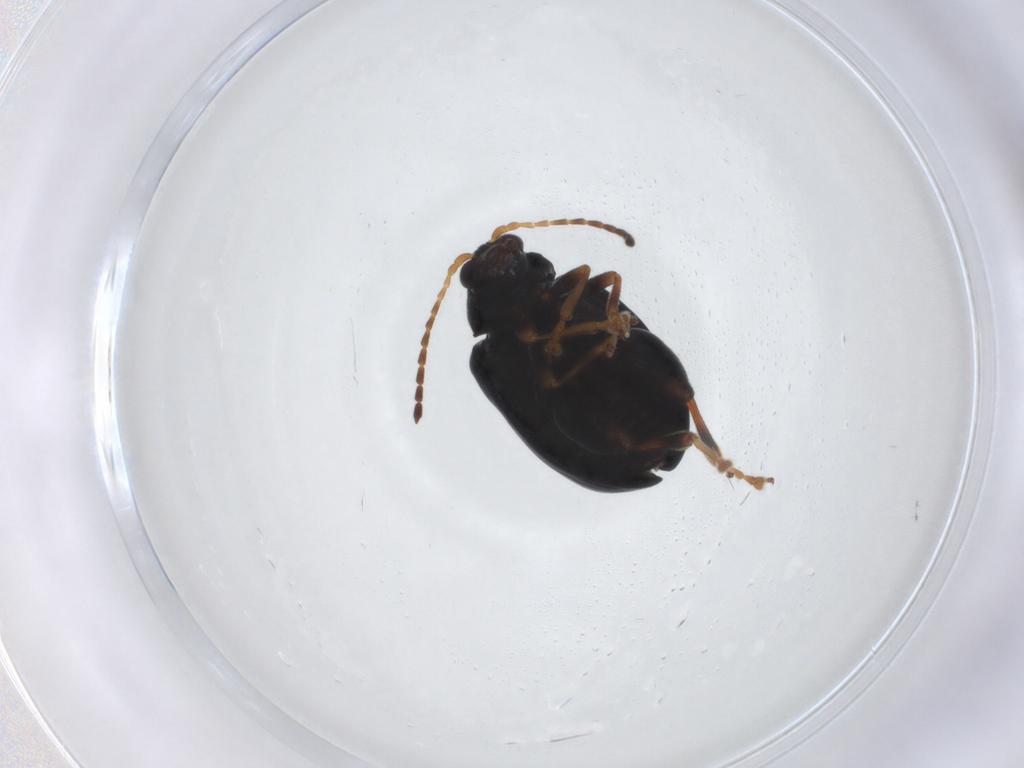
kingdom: Animalia
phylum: Arthropoda
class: Insecta
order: Coleoptera
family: Chrysomelidae
